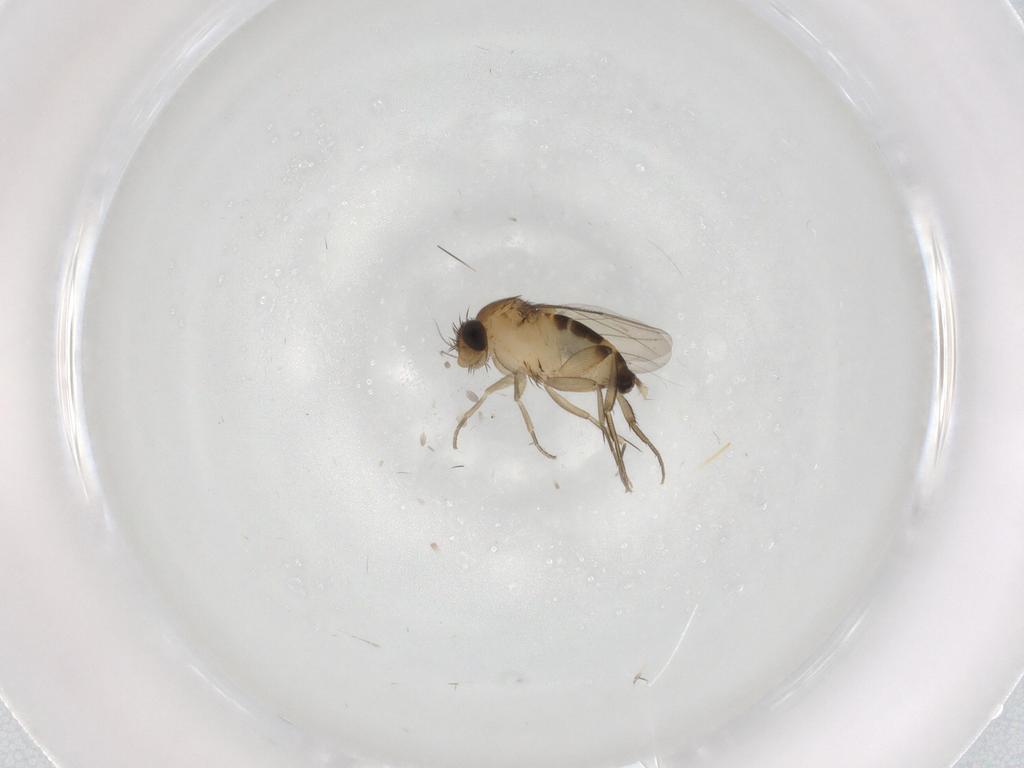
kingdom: Animalia
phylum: Arthropoda
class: Insecta
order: Diptera
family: Phoridae
